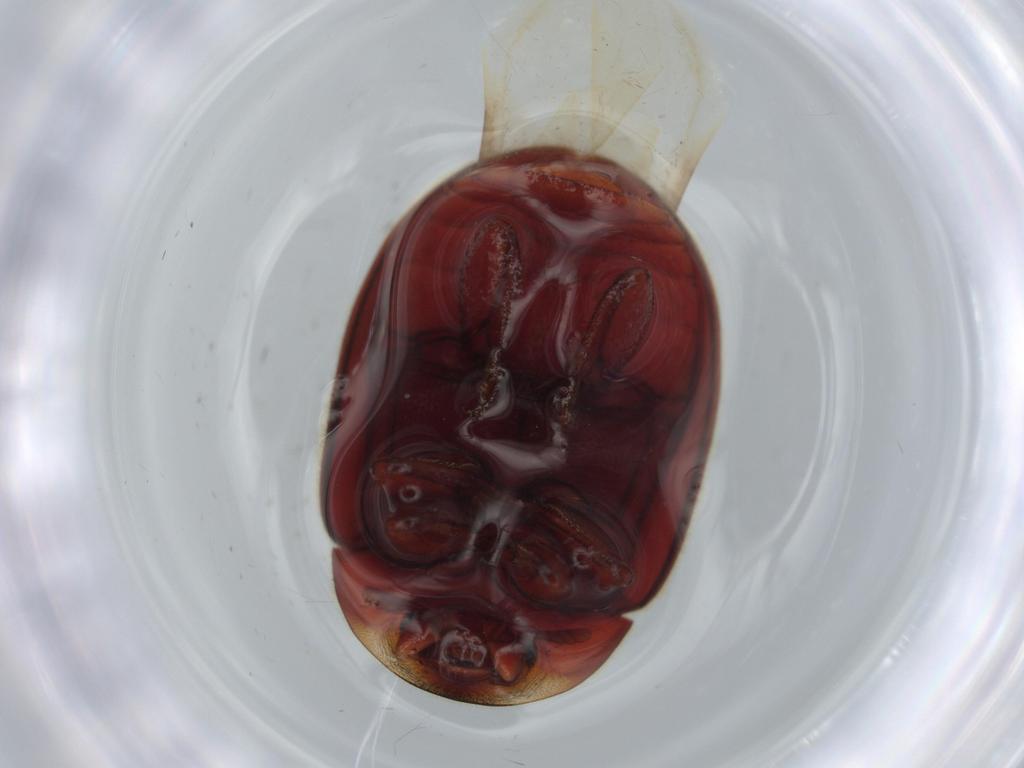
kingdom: Animalia
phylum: Arthropoda
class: Insecta
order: Coleoptera
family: Coccinellidae
